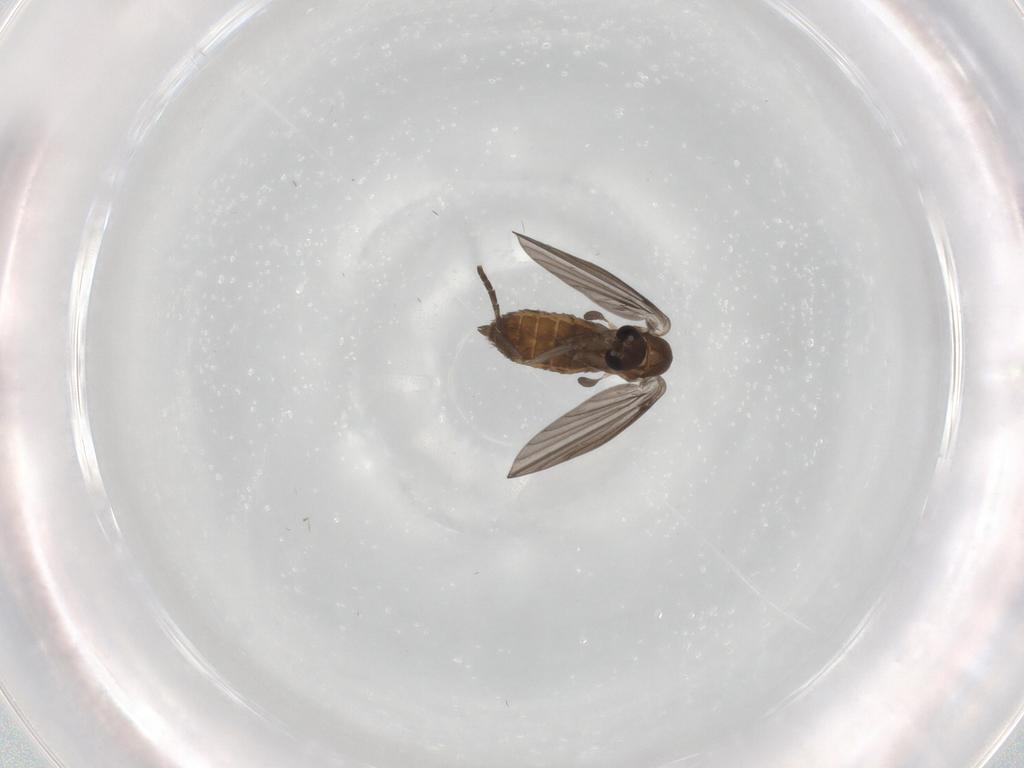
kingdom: Animalia
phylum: Arthropoda
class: Insecta
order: Diptera
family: Psychodidae
